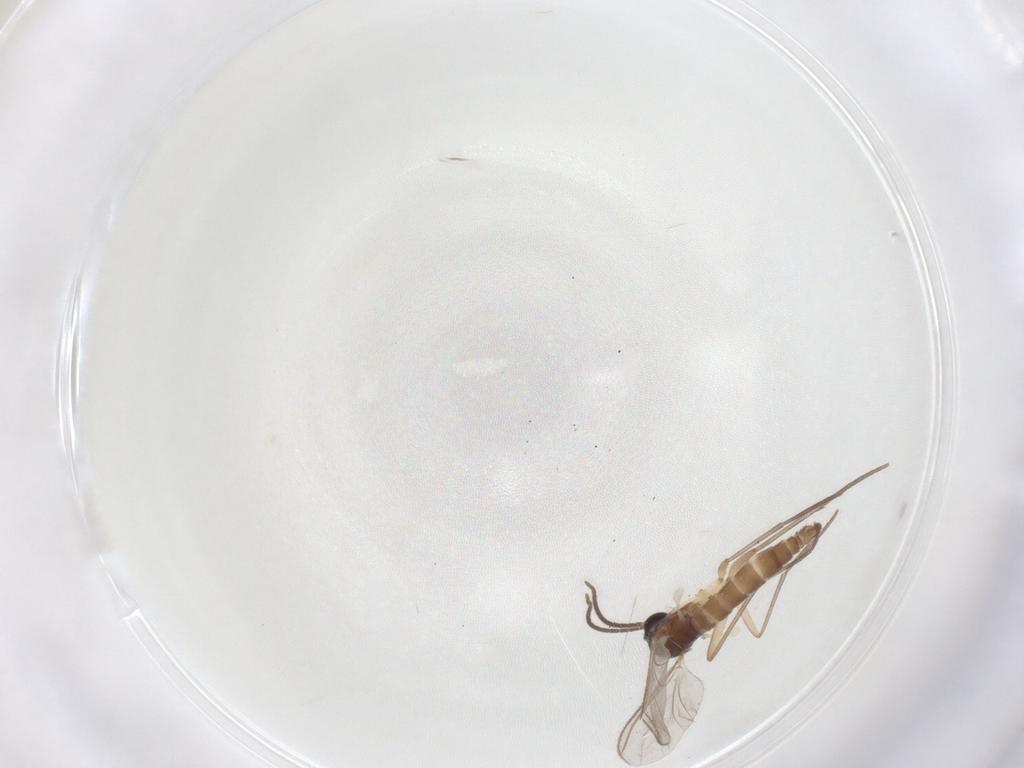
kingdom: Animalia
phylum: Arthropoda
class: Insecta
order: Diptera
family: Sciaridae
